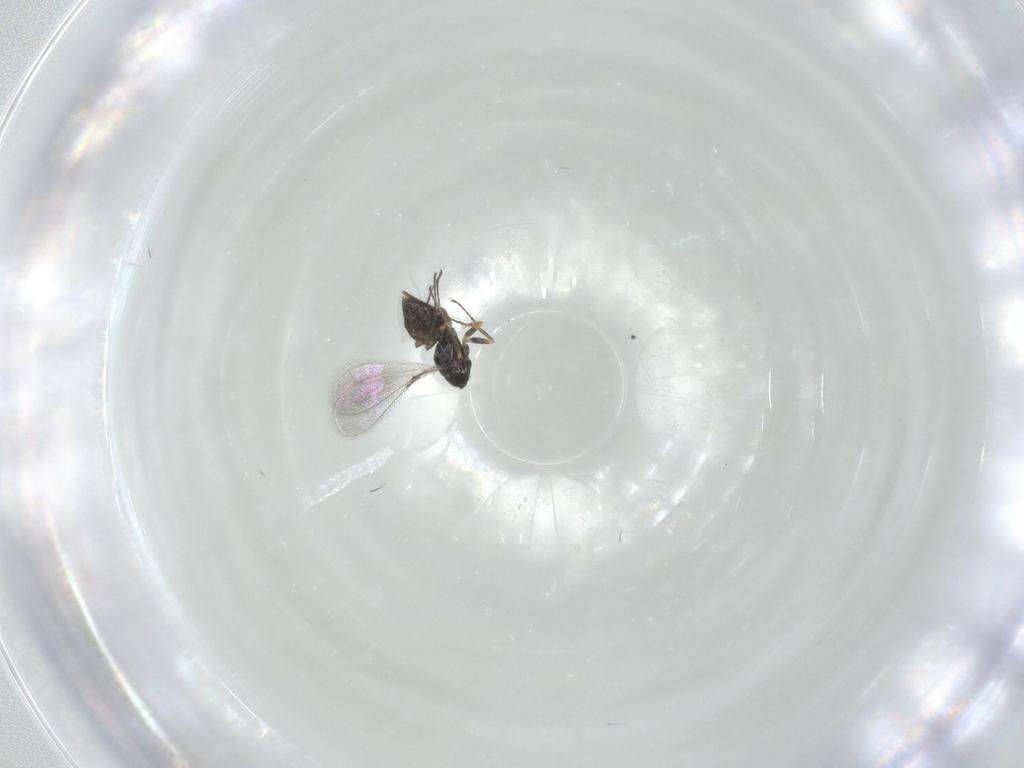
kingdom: Animalia
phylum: Arthropoda
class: Insecta
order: Hymenoptera
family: Mymaridae
